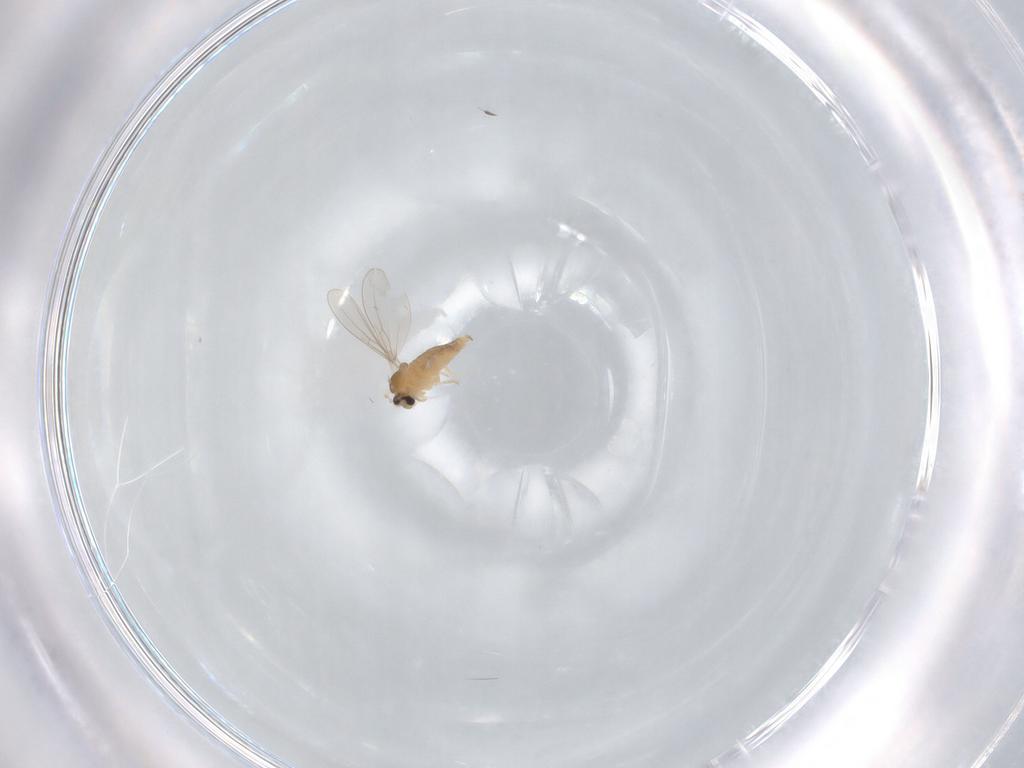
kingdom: Animalia
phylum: Arthropoda
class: Insecta
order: Diptera
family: Cecidomyiidae
